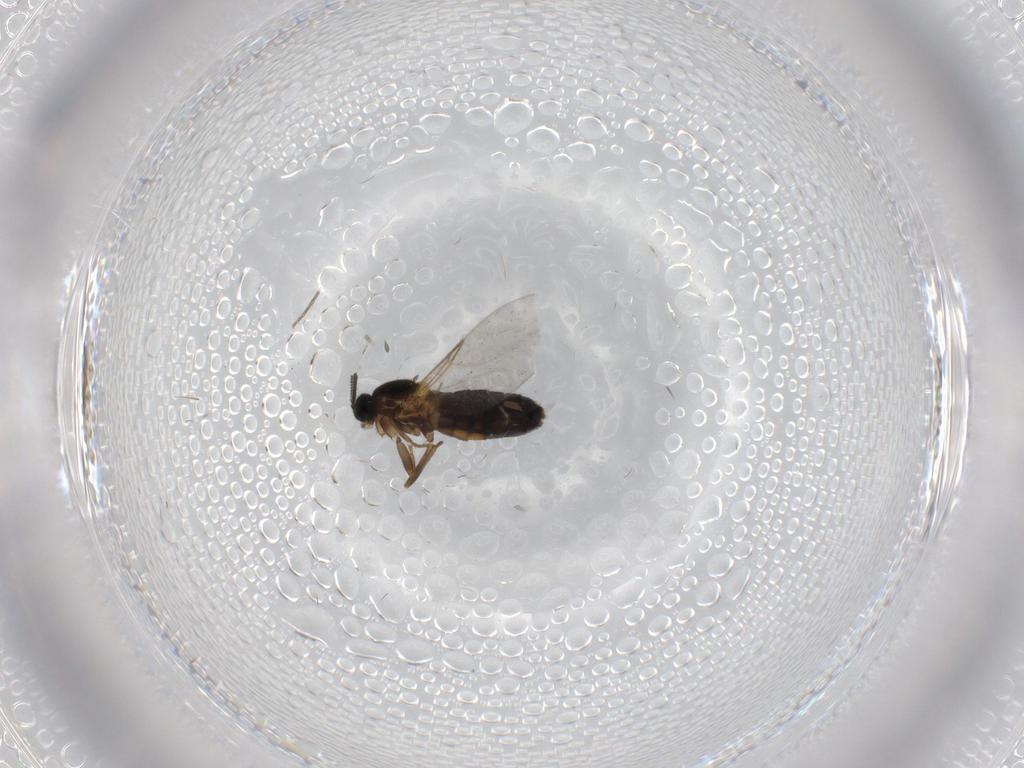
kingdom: Animalia
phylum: Arthropoda
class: Insecta
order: Diptera
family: Scatopsidae
